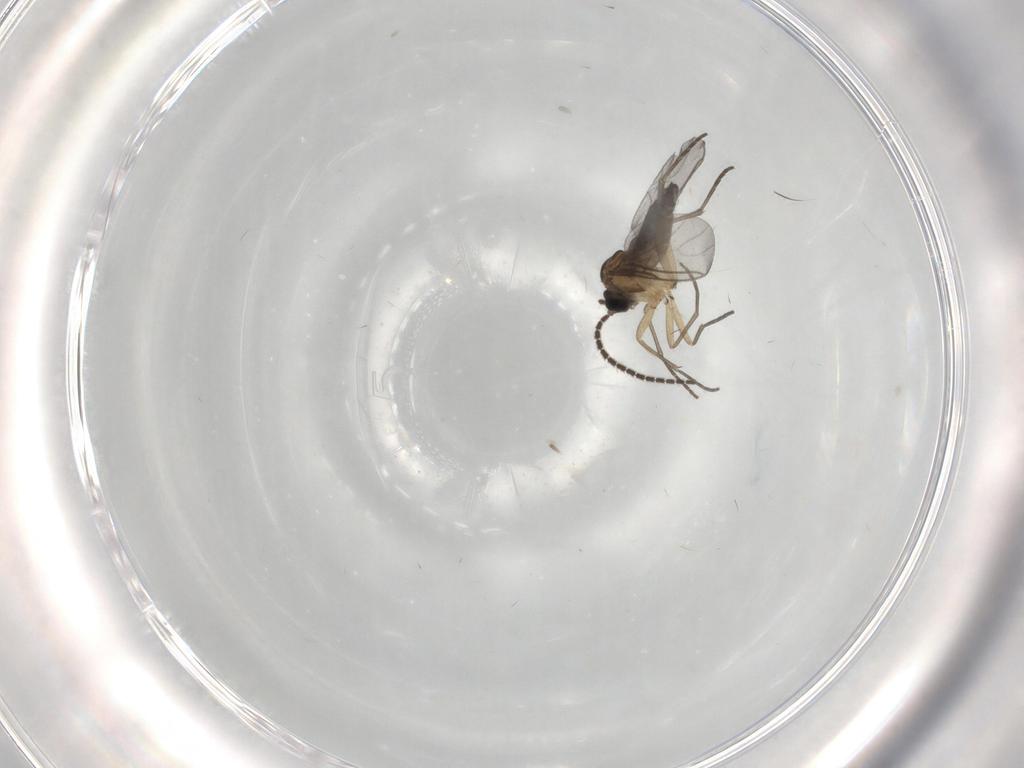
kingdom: Animalia
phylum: Arthropoda
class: Insecta
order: Diptera
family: Sciaridae
